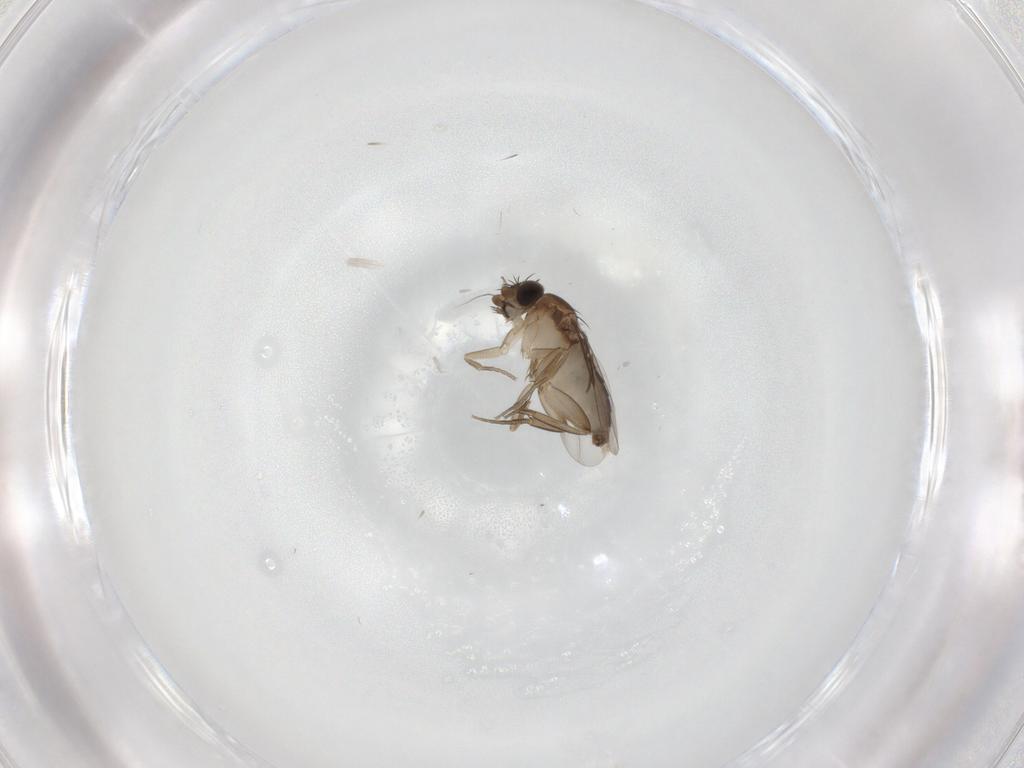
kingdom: Animalia
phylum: Arthropoda
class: Insecta
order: Diptera
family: Phoridae
